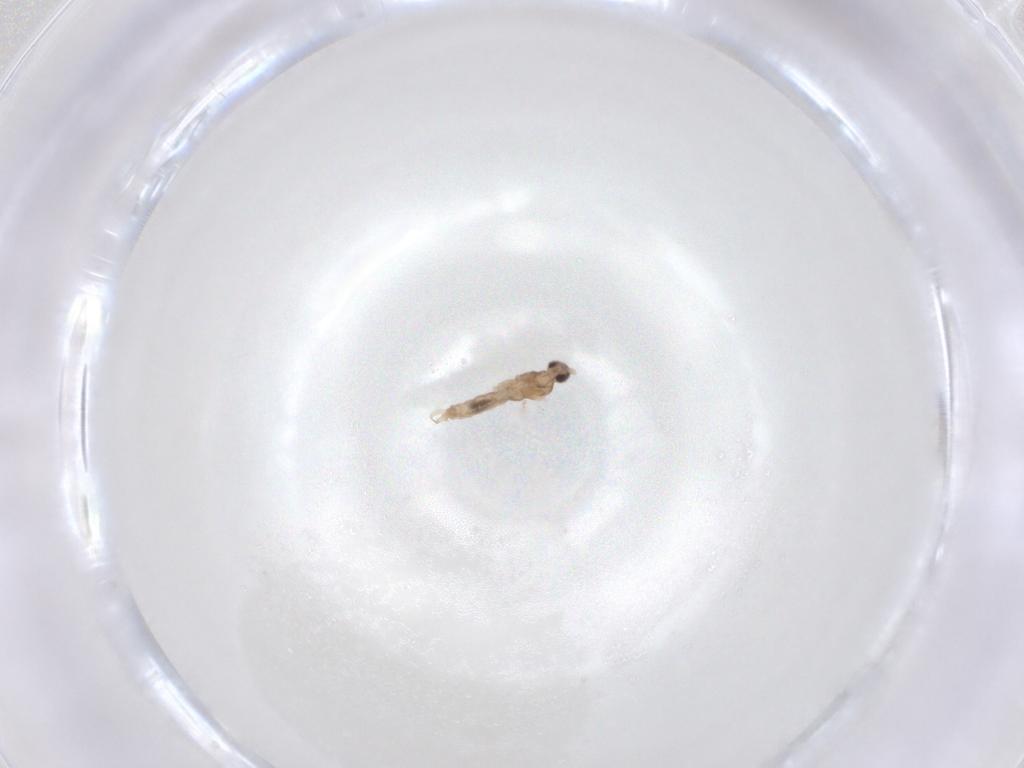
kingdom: Animalia
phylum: Arthropoda
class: Insecta
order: Diptera
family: Cecidomyiidae
